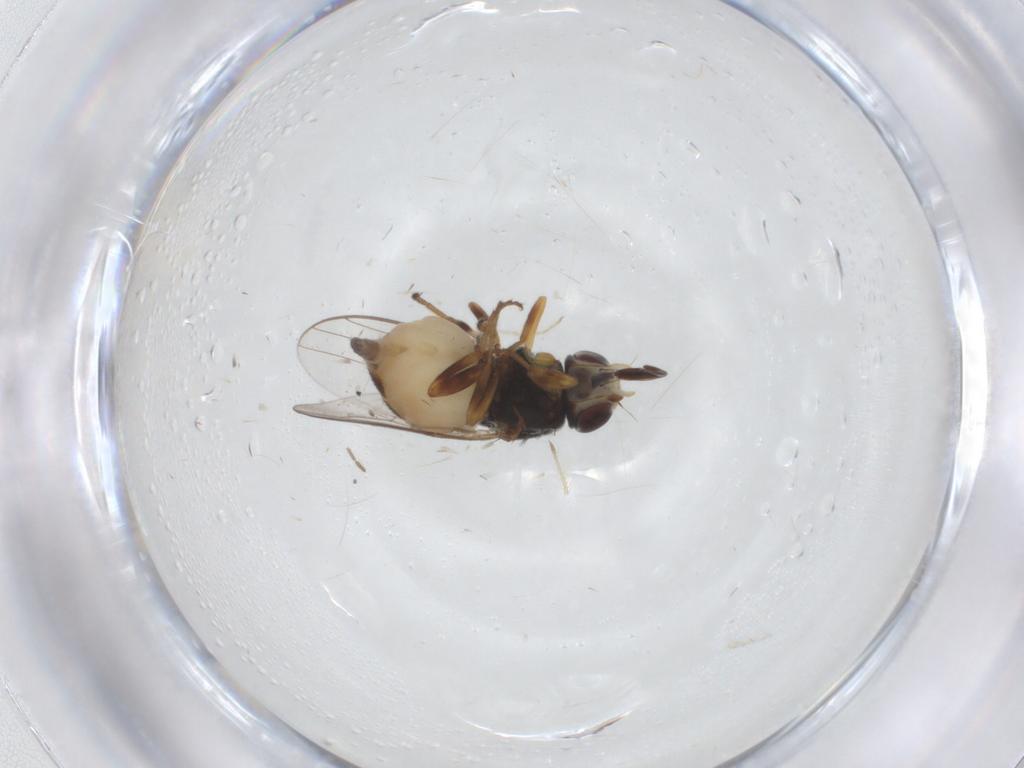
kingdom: Animalia
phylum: Arthropoda
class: Insecta
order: Diptera
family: Chloropidae
